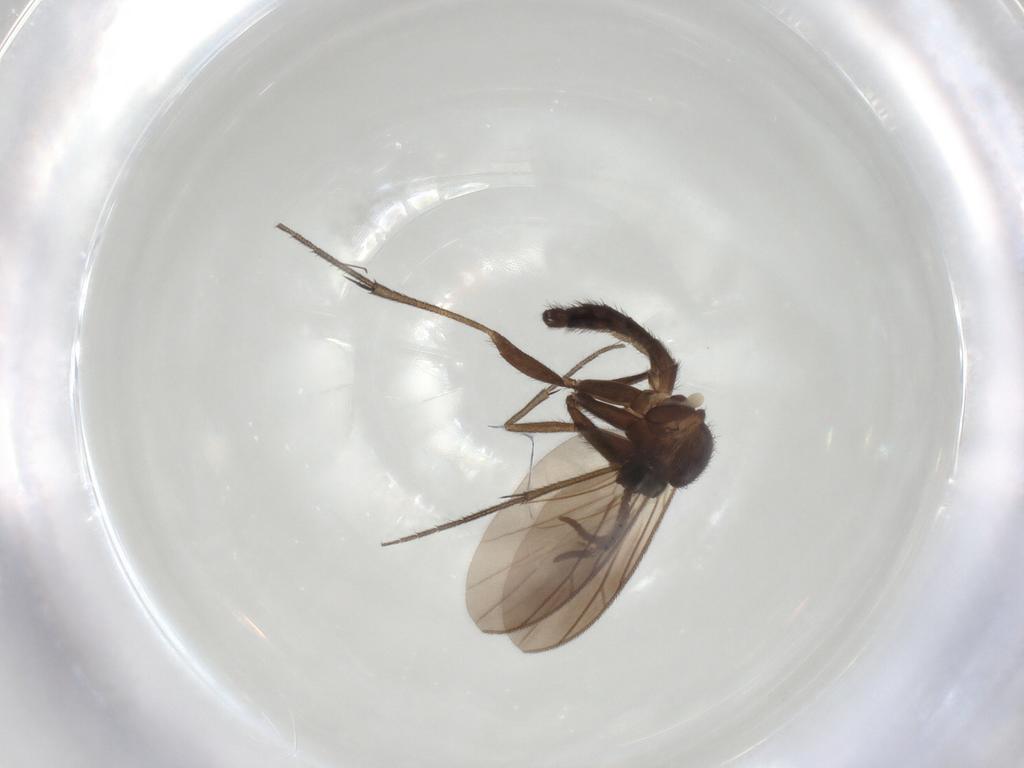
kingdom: Animalia
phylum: Arthropoda
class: Insecta
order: Diptera
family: Keroplatidae
